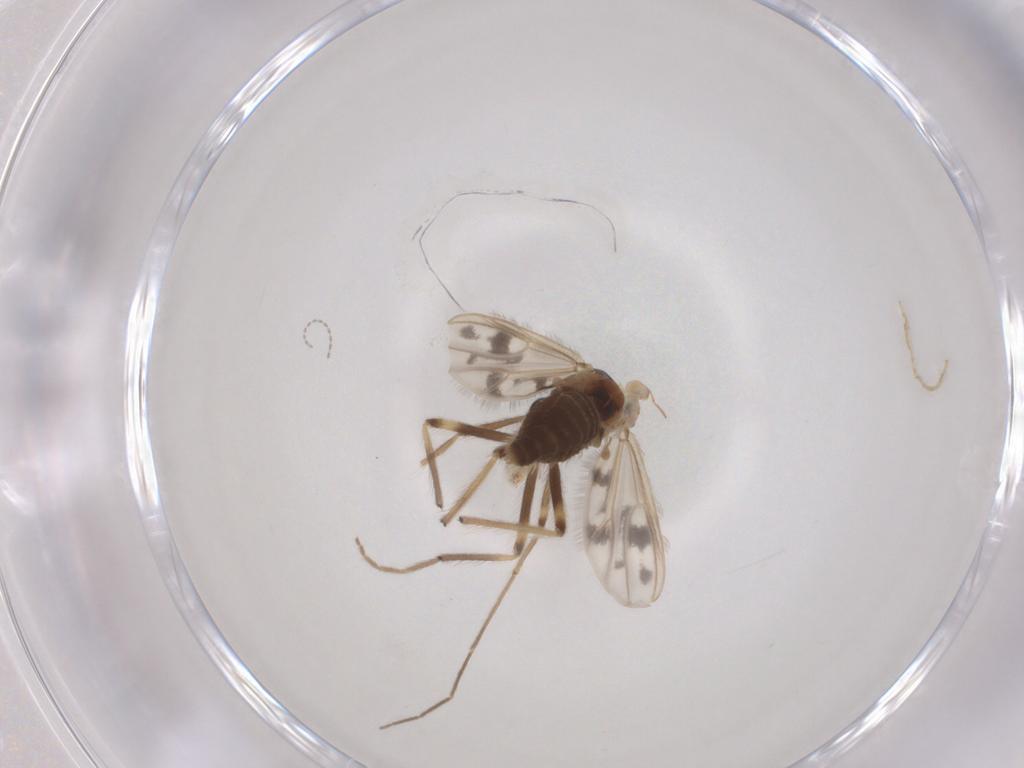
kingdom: Animalia
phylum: Arthropoda
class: Insecta
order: Diptera
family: Chironomidae
